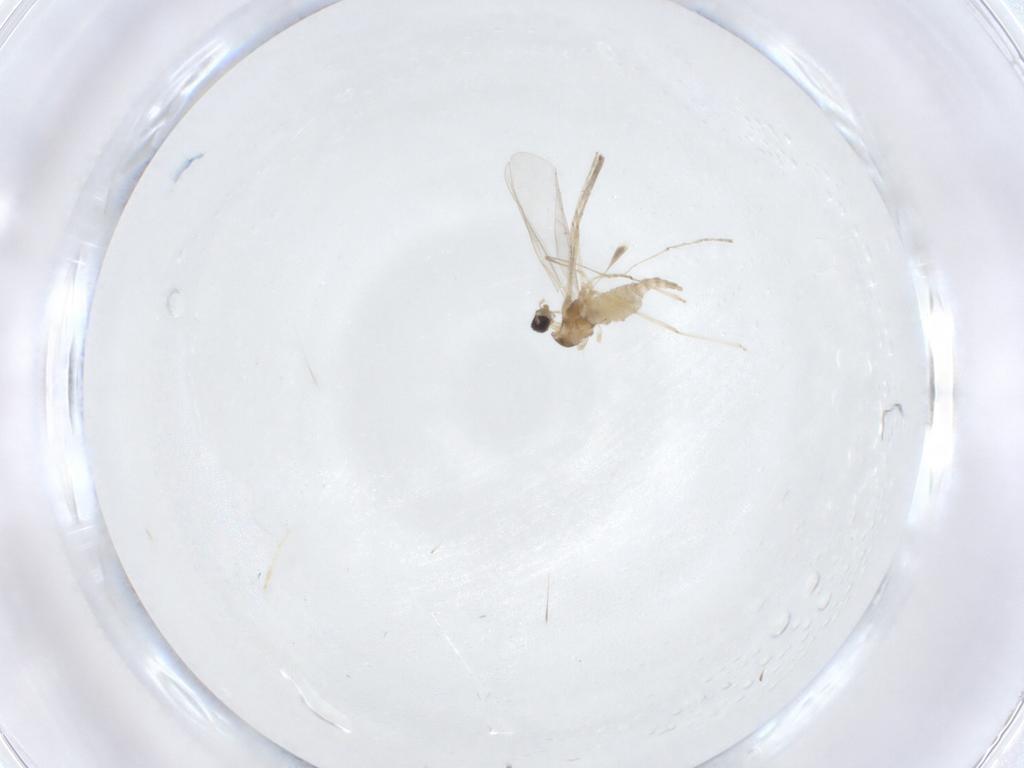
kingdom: Animalia
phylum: Arthropoda
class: Insecta
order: Diptera
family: Cecidomyiidae
